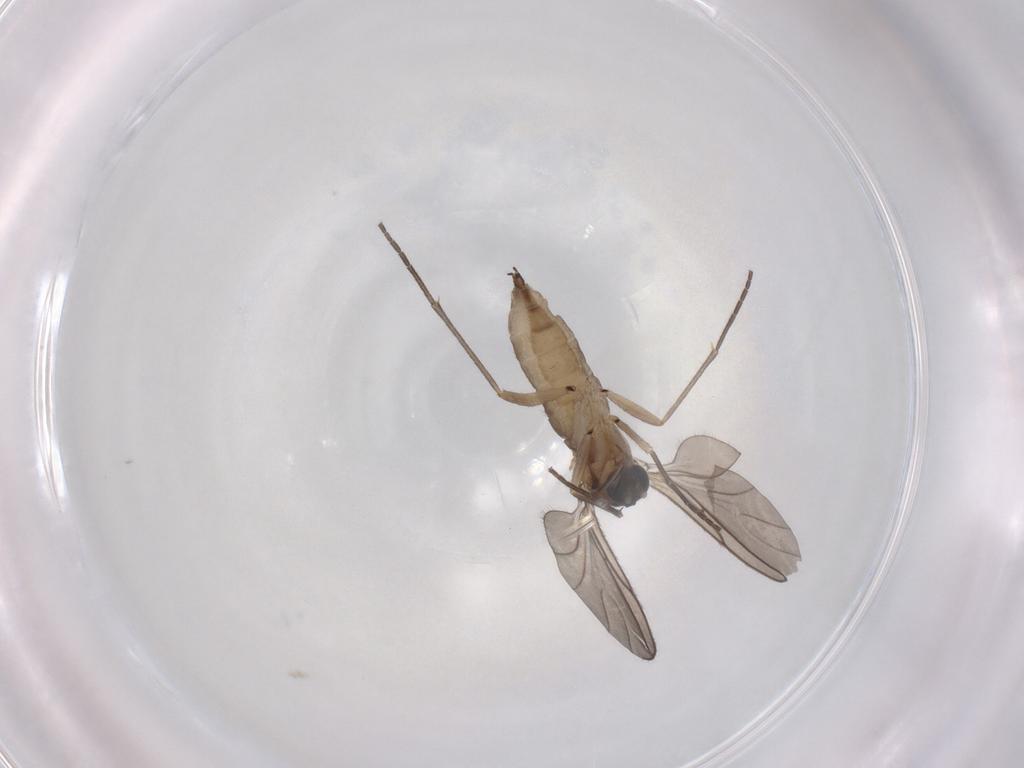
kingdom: Animalia
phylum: Arthropoda
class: Insecta
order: Diptera
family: Sciaridae
